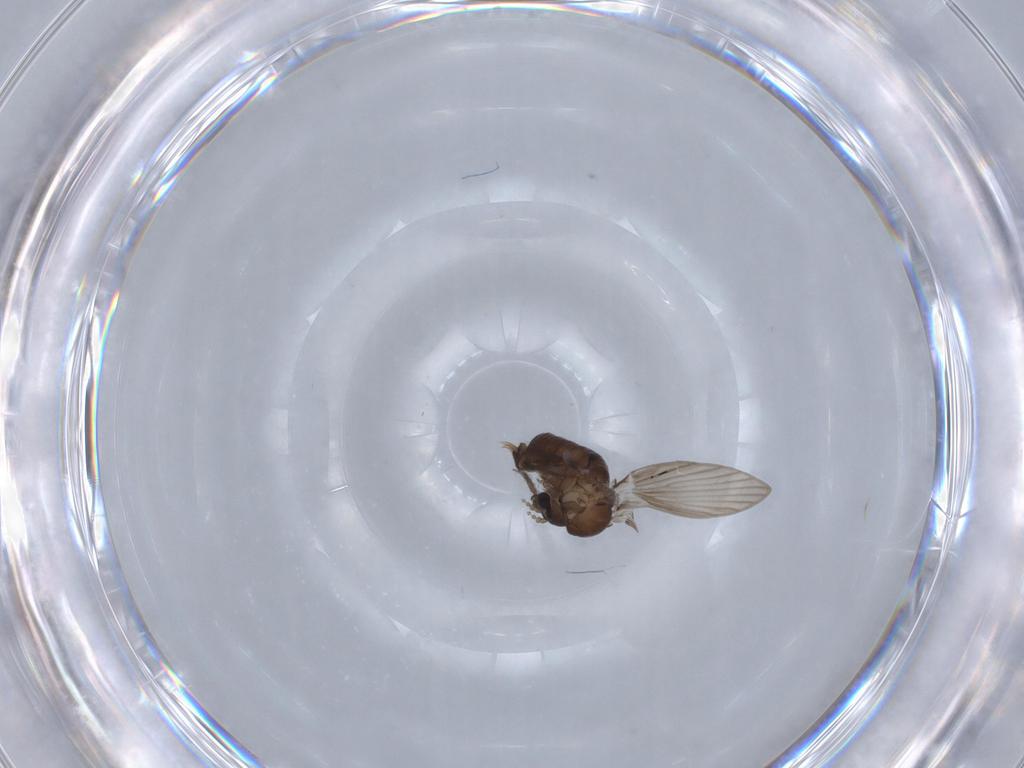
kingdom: Animalia
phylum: Arthropoda
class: Insecta
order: Diptera
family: Psychodidae
